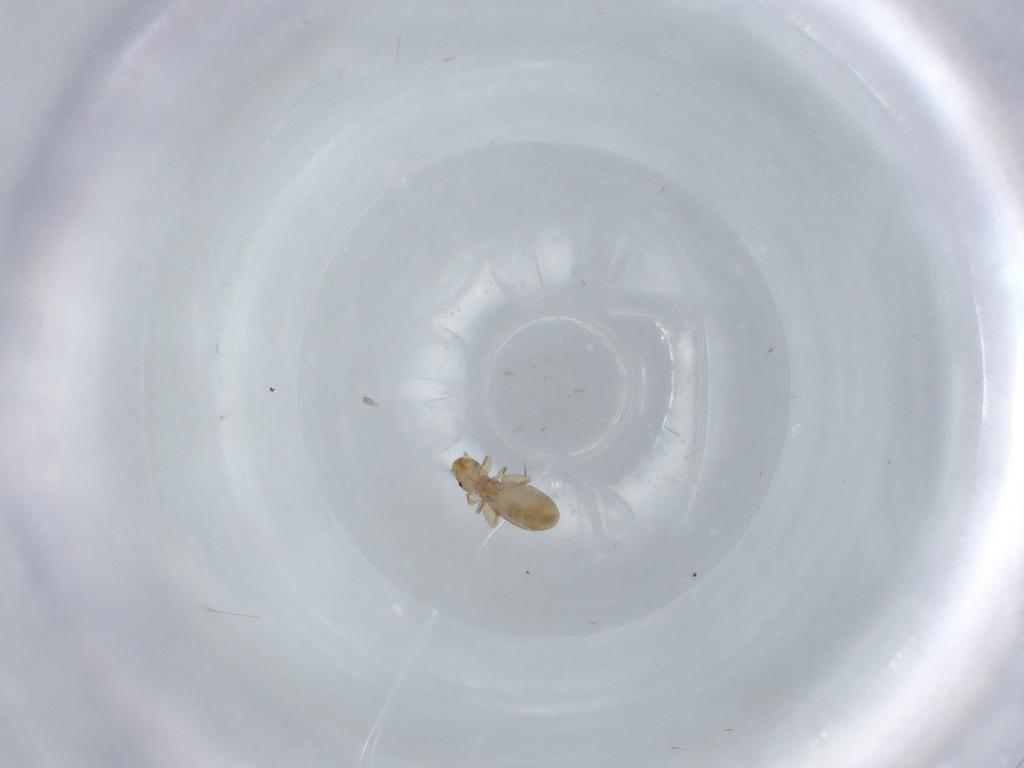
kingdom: Animalia
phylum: Arthropoda
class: Insecta
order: Psocodea
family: Liposcelididae
